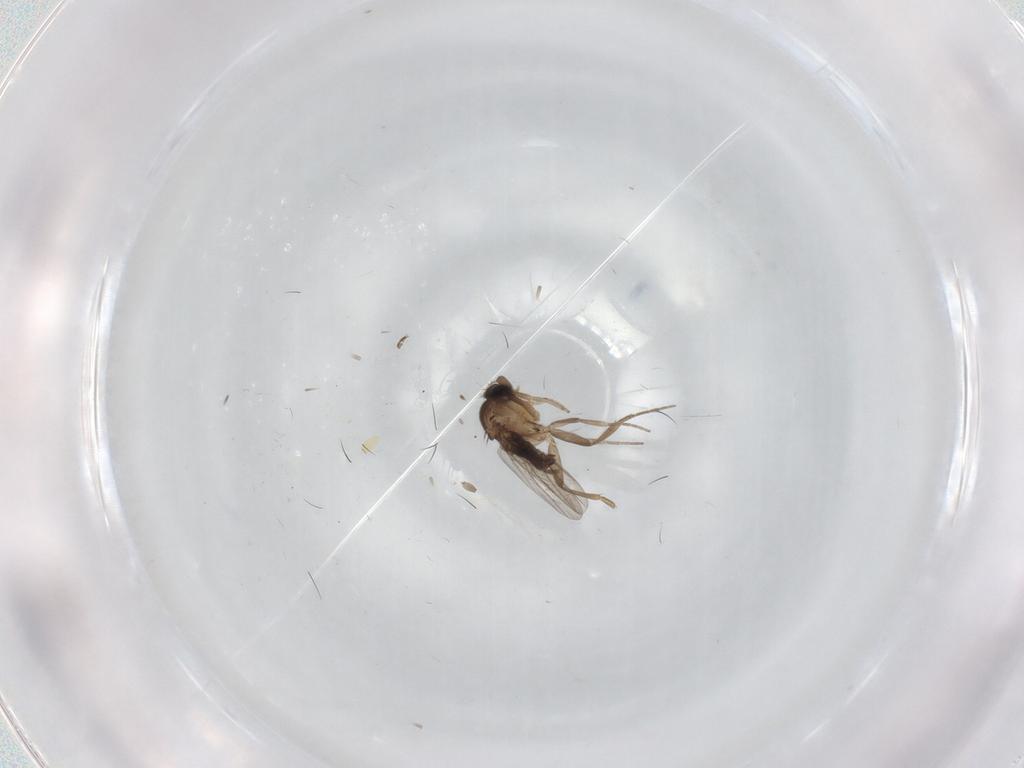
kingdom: Animalia
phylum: Arthropoda
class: Insecta
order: Diptera
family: Phoridae
